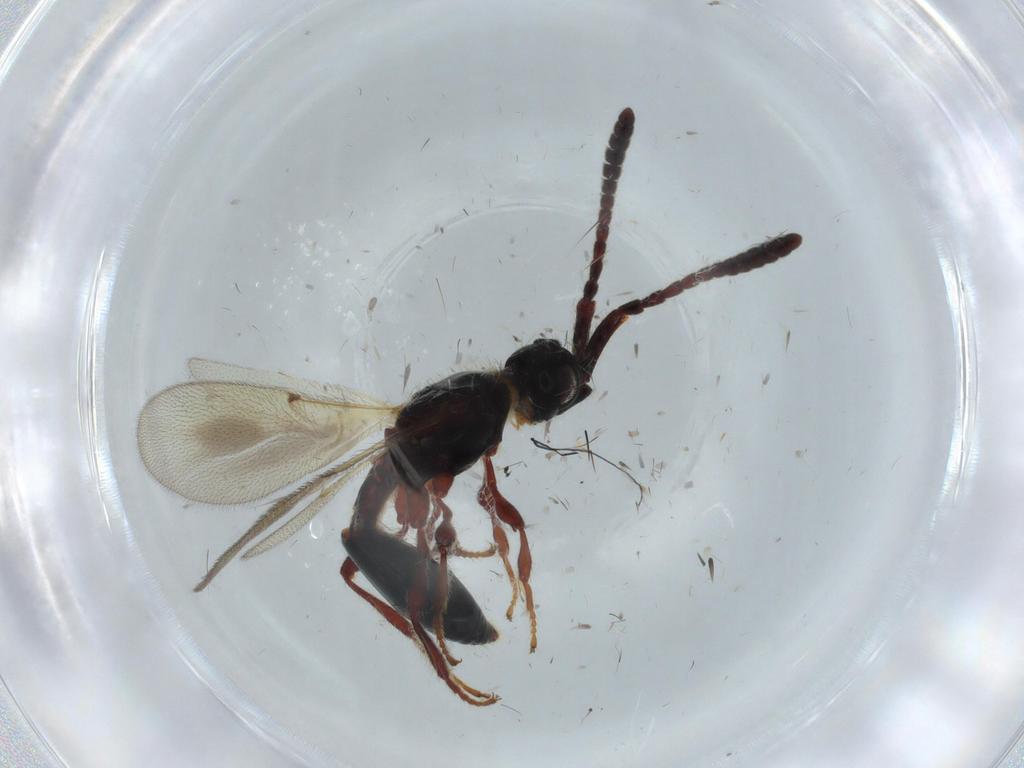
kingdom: Animalia
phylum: Arthropoda
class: Insecta
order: Hymenoptera
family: Diapriidae
